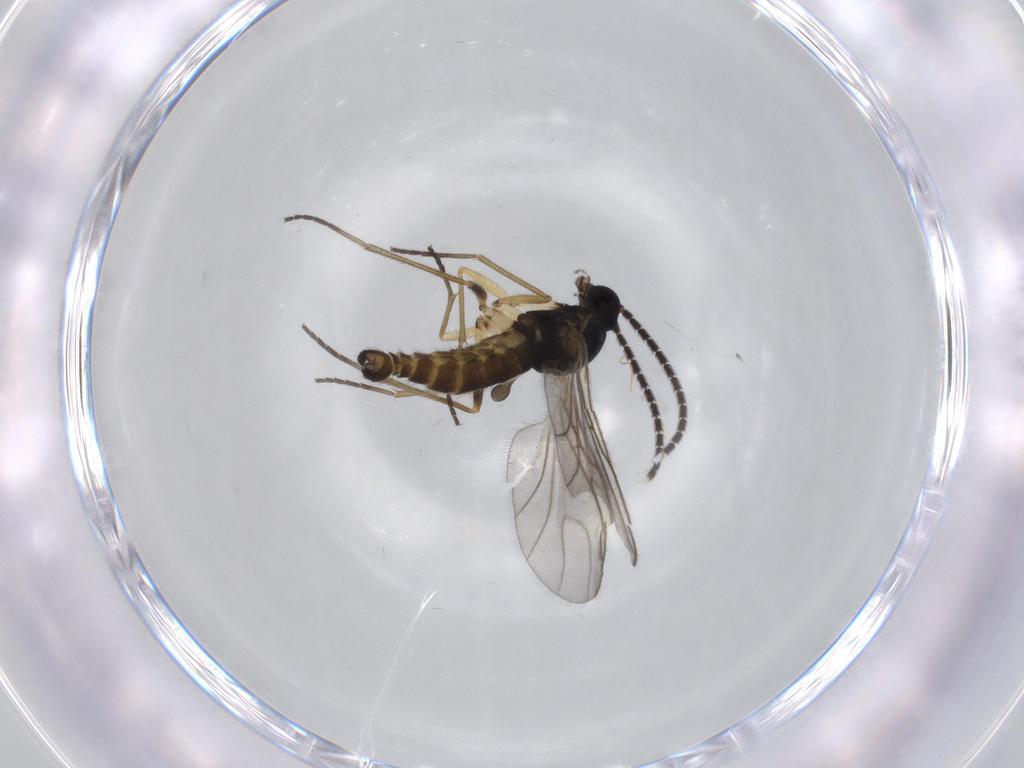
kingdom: Animalia
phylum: Arthropoda
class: Insecta
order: Diptera
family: Sciaridae
